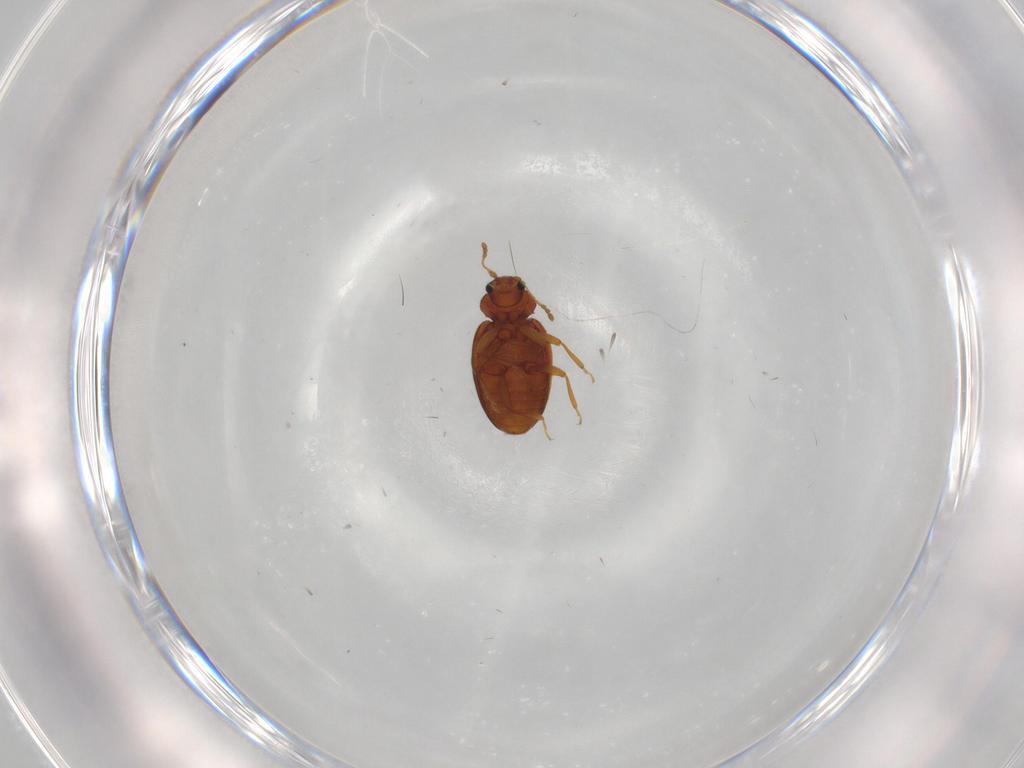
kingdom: Animalia
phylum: Arthropoda
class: Insecta
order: Coleoptera
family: Latridiidae
